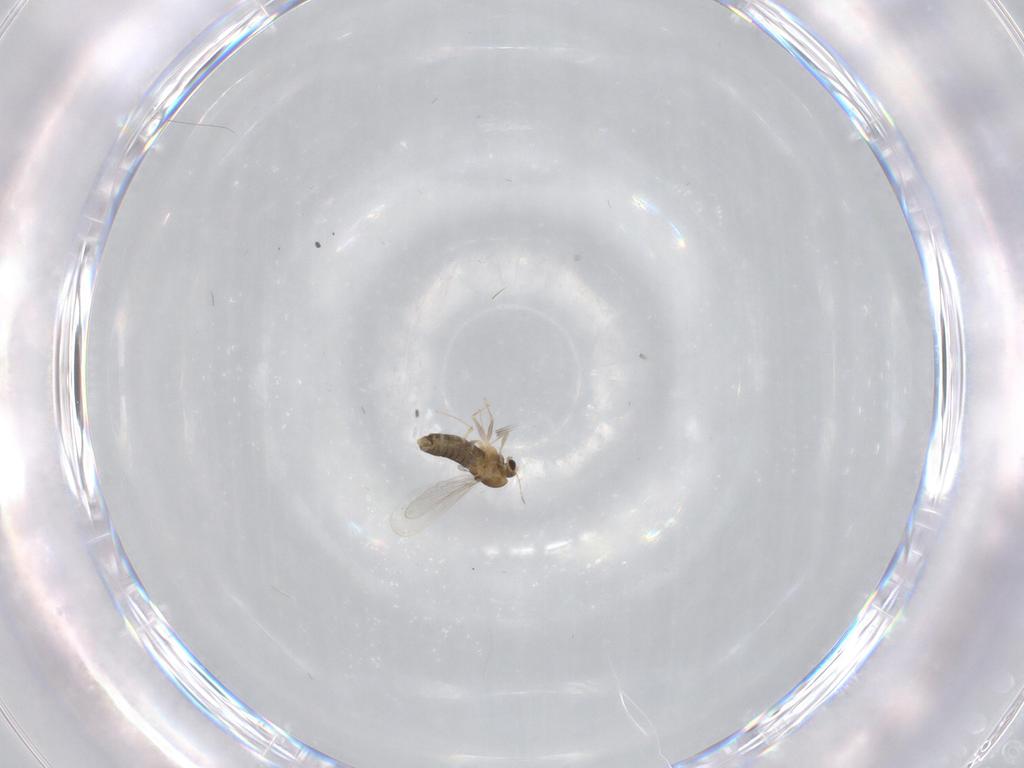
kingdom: Animalia
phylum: Arthropoda
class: Insecta
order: Diptera
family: Chironomidae
